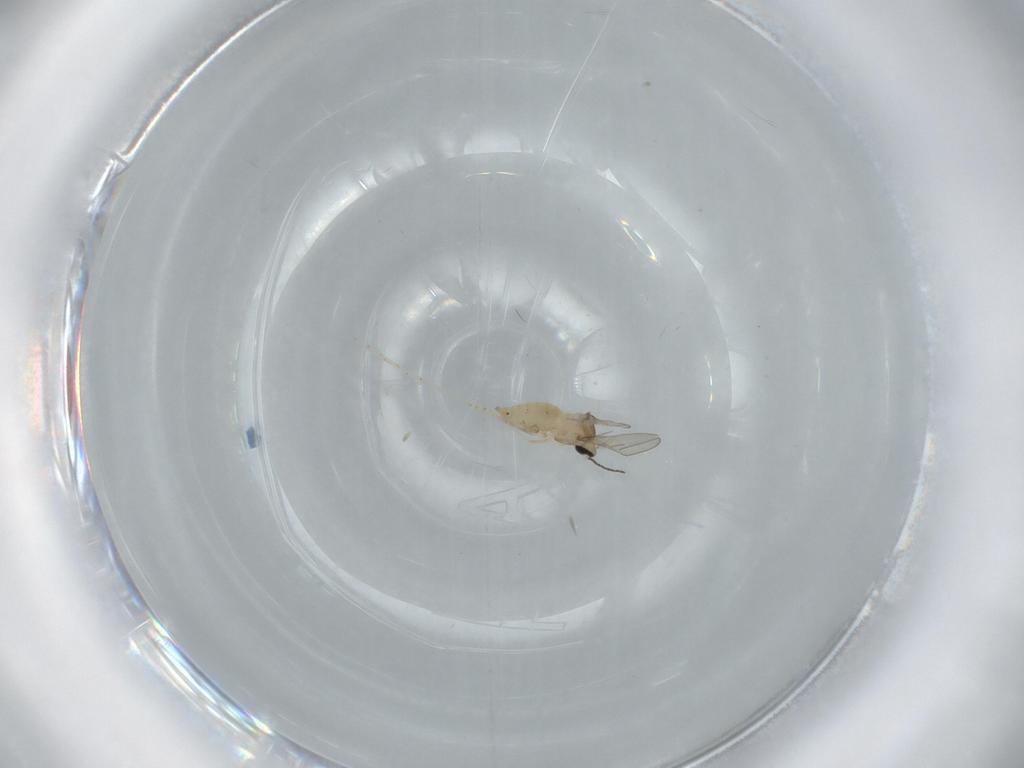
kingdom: Animalia
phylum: Arthropoda
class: Insecta
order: Diptera
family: Cecidomyiidae
